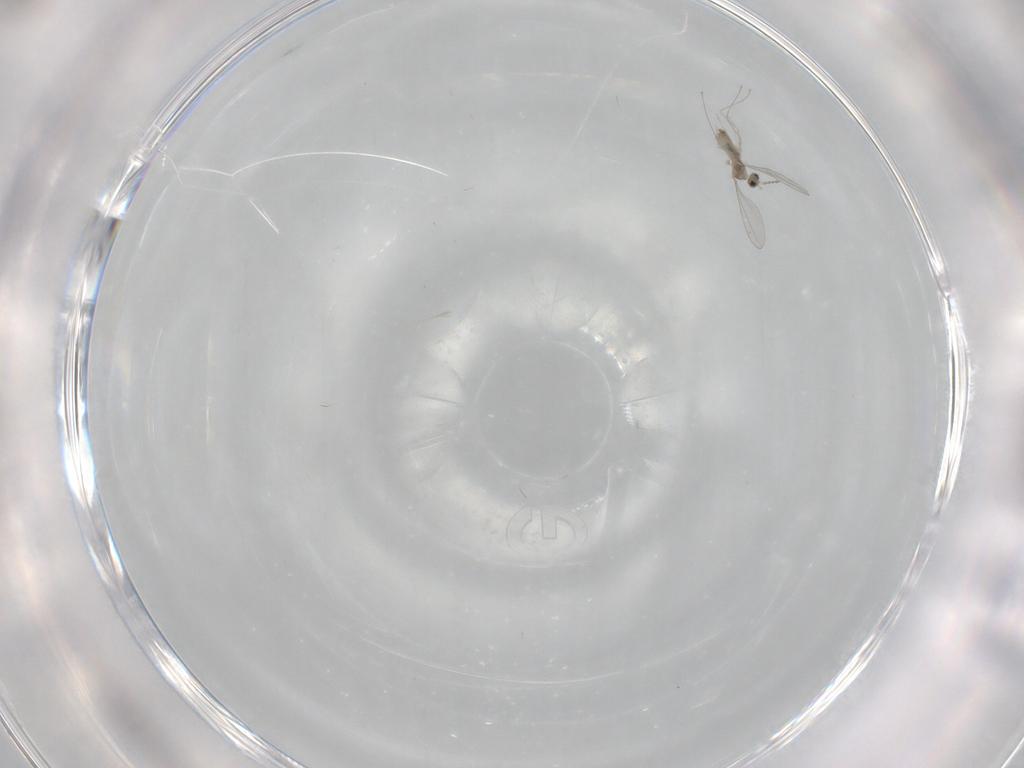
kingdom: Animalia
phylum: Arthropoda
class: Insecta
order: Diptera
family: Cecidomyiidae
